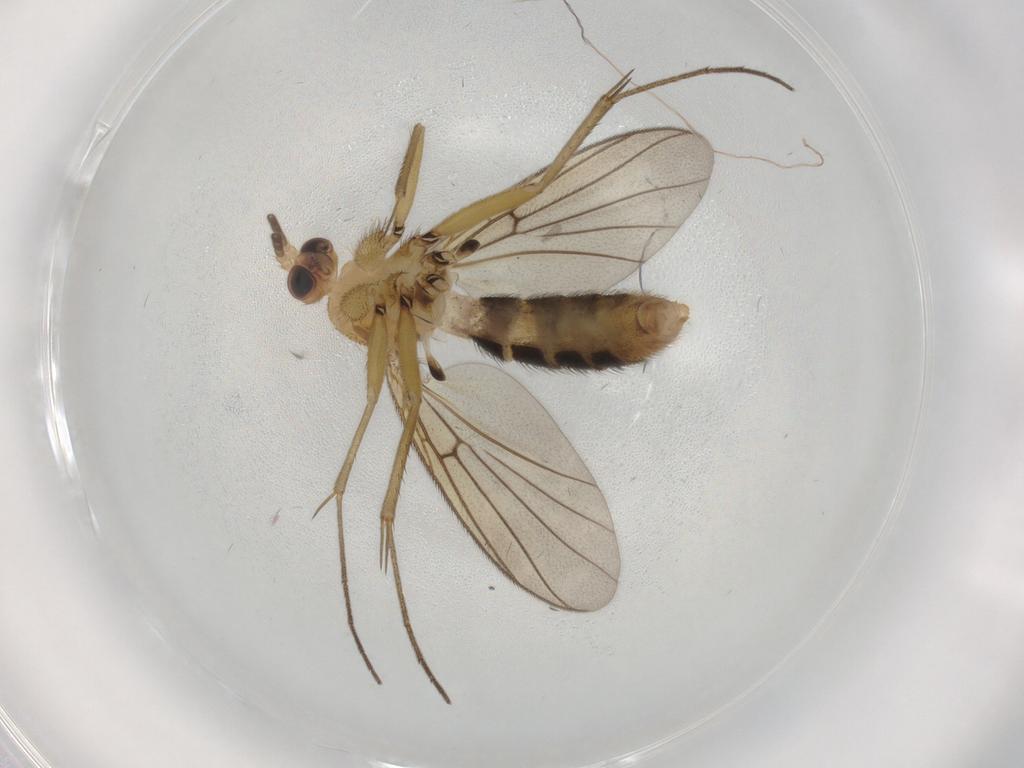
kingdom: Animalia
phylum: Arthropoda
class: Insecta
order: Diptera
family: Mycetophilidae
